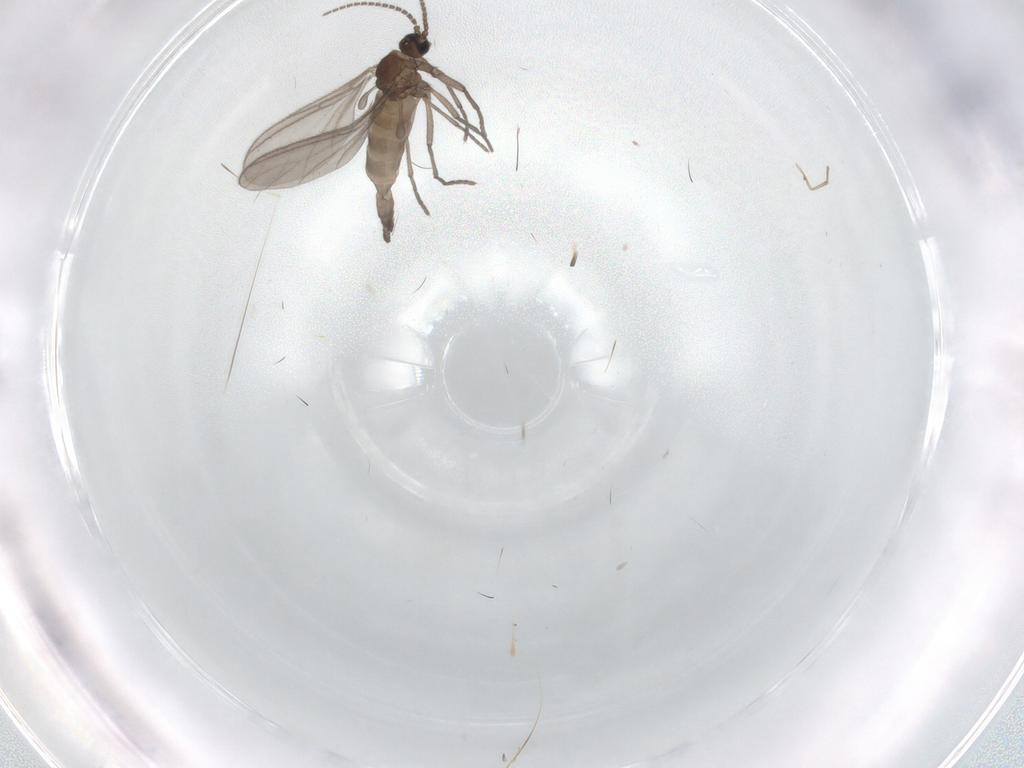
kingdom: Animalia
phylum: Arthropoda
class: Insecta
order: Diptera
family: Sciaridae
